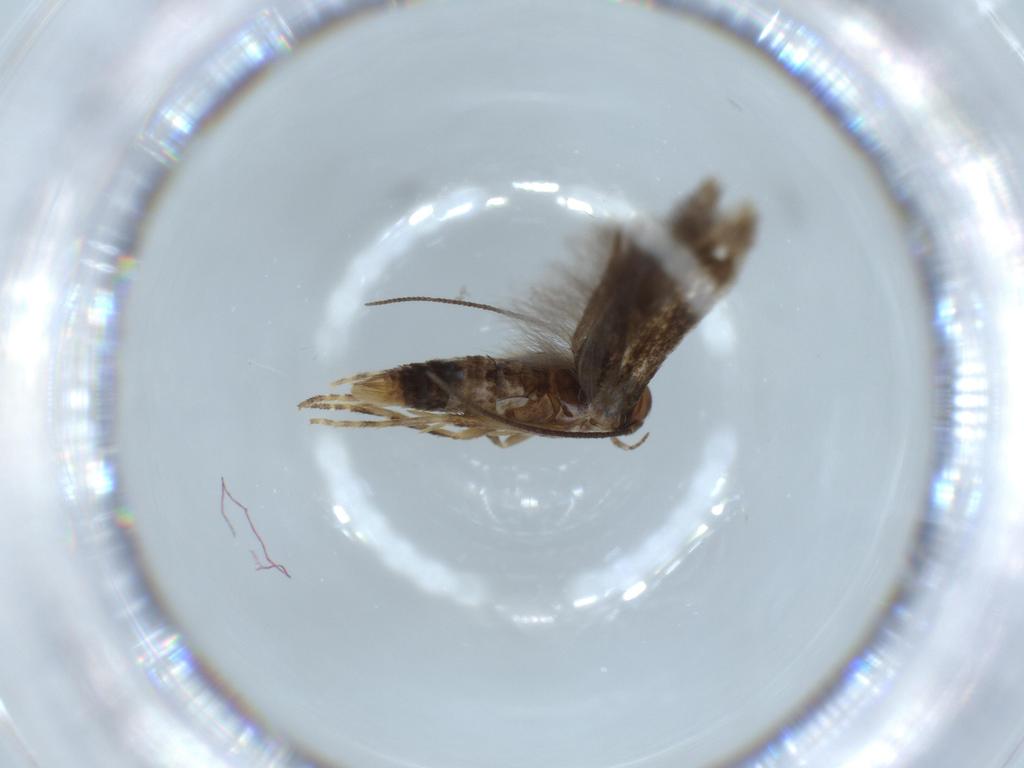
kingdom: Animalia
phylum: Arthropoda
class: Insecta
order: Lepidoptera
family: Elachistidae
